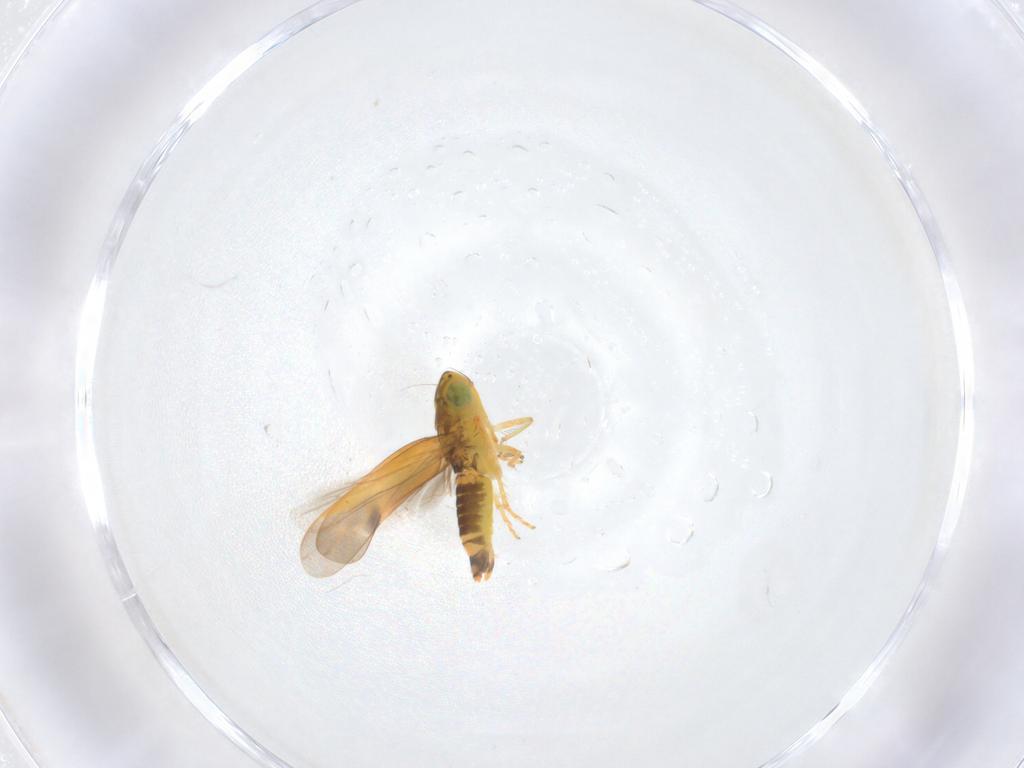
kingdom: Animalia
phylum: Arthropoda
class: Insecta
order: Hemiptera
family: Cicadellidae
